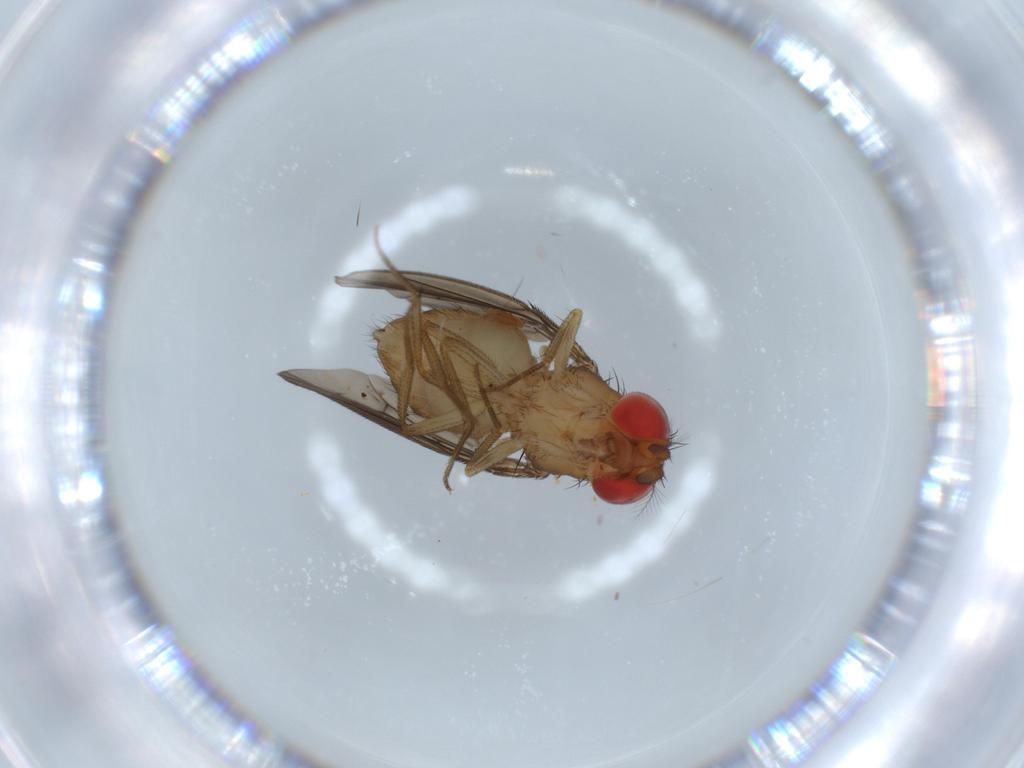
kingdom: Animalia
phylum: Arthropoda
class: Insecta
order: Diptera
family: Drosophilidae
